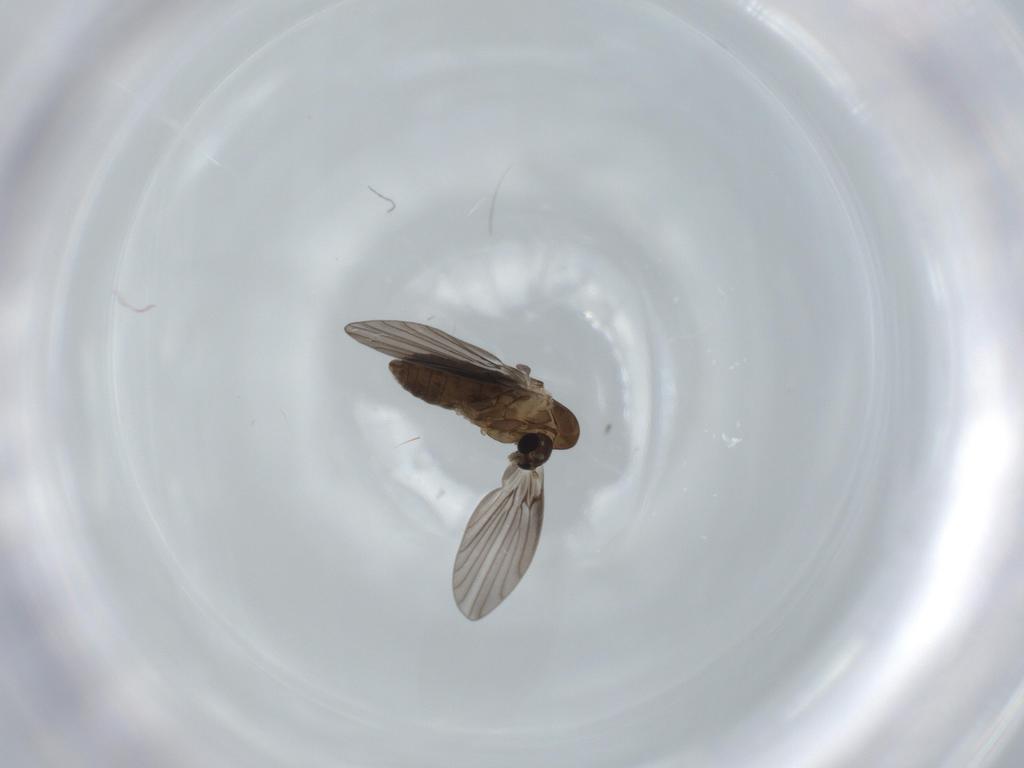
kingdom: Animalia
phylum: Arthropoda
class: Insecta
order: Diptera
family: Psychodidae
